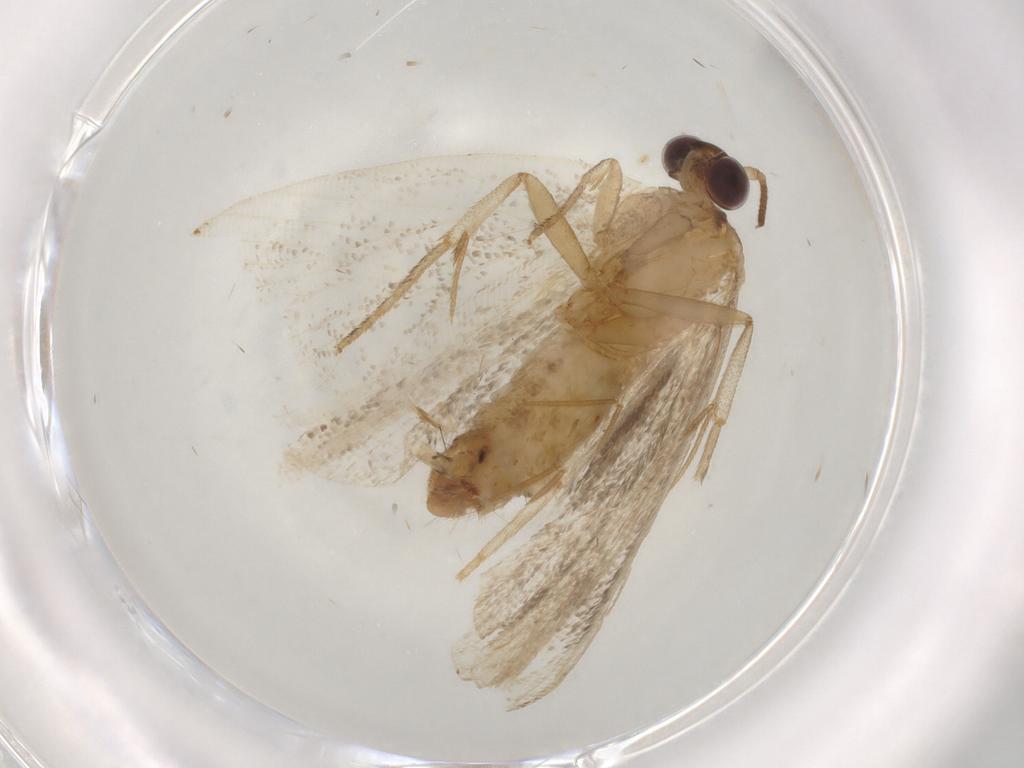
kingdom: Animalia
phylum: Arthropoda
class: Insecta
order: Lepidoptera
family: Tortricidae
